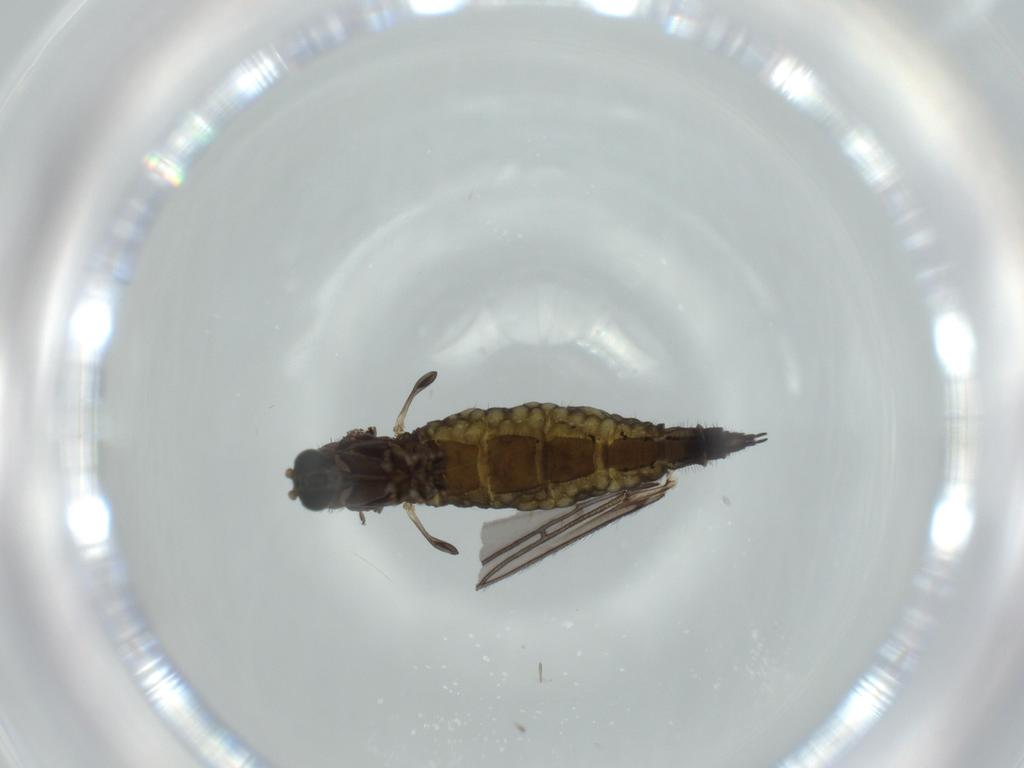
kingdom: Animalia
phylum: Arthropoda
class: Insecta
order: Diptera
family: Sciaridae
